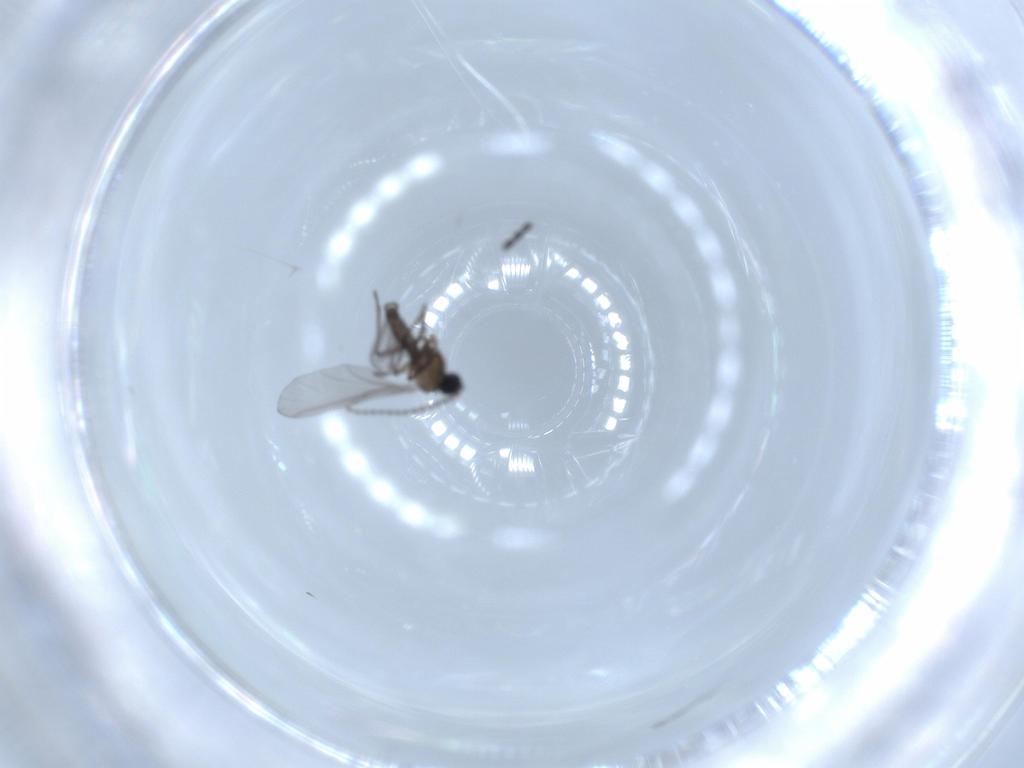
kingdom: Animalia
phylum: Arthropoda
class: Insecta
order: Diptera
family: Sciaridae
